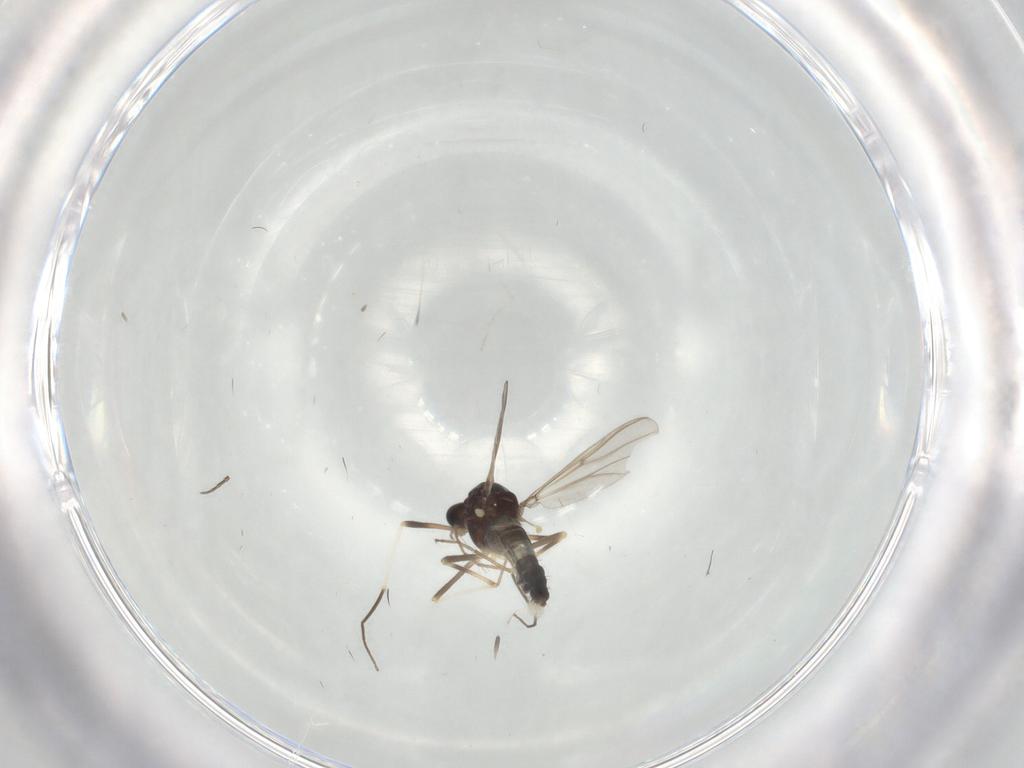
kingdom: Animalia
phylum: Arthropoda
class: Insecta
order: Diptera
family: Chironomidae
